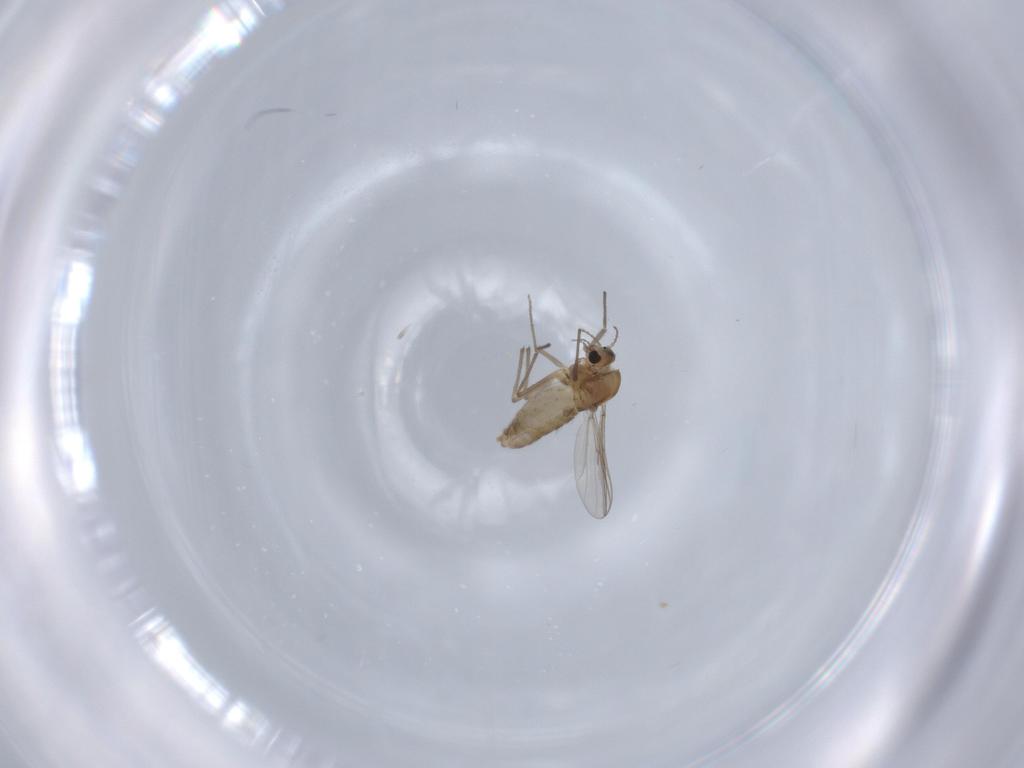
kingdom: Animalia
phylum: Arthropoda
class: Insecta
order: Diptera
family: Chironomidae
